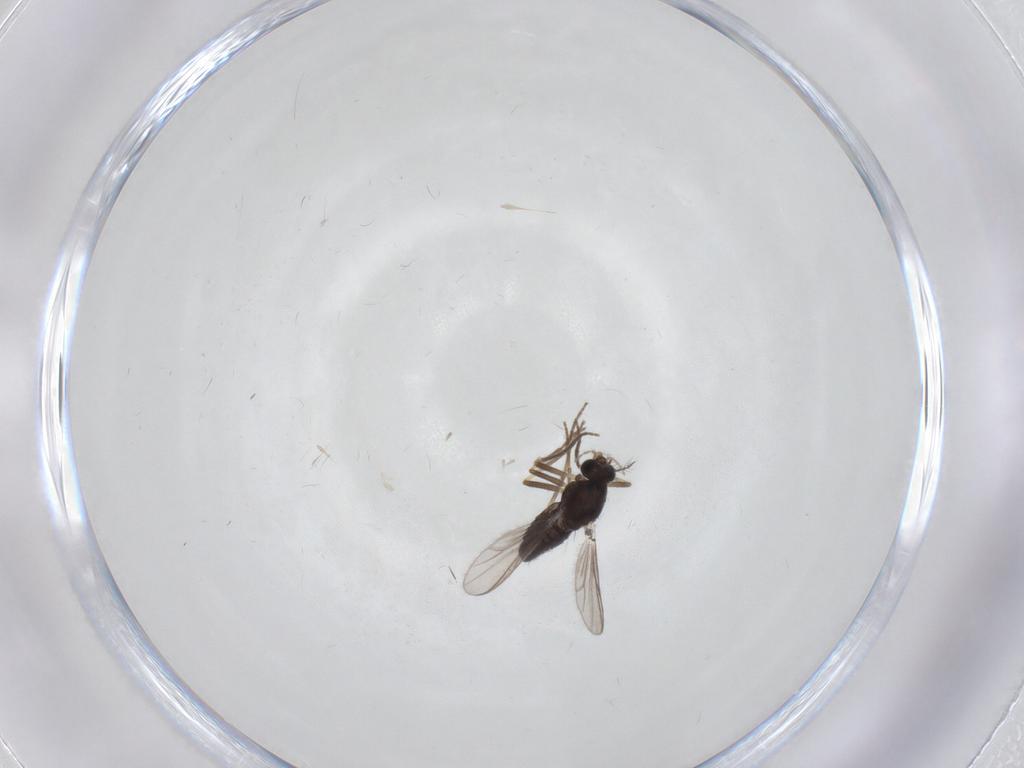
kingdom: Animalia
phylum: Arthropoda
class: Insecta
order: Diptera
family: Chironomidae
